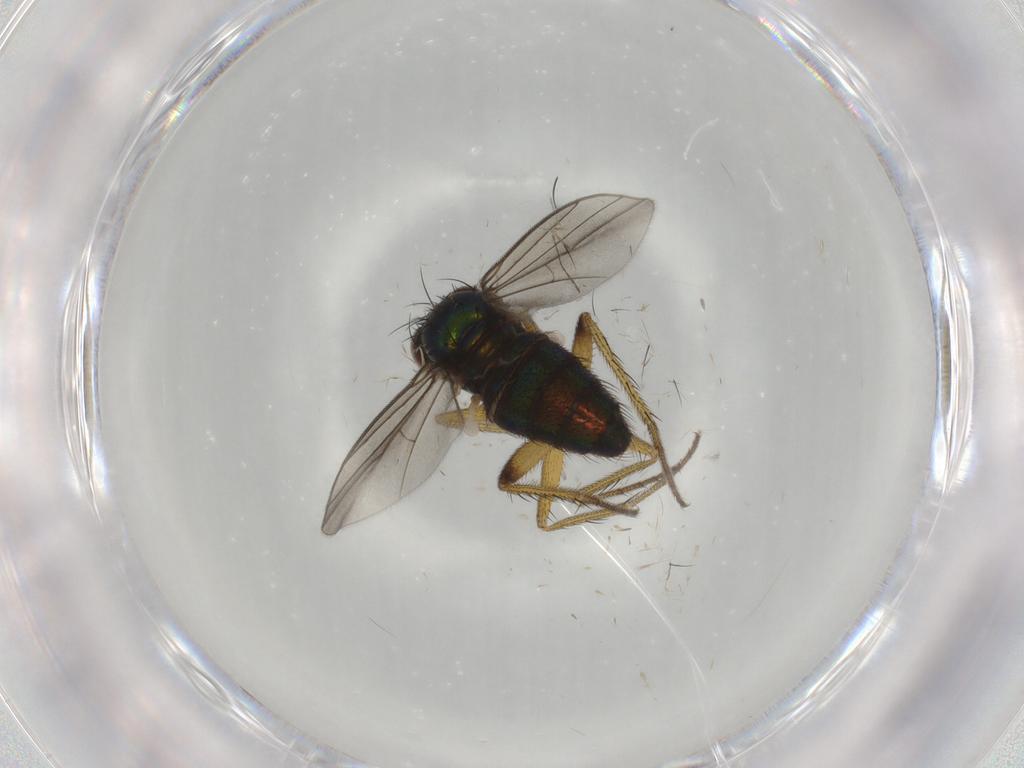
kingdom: Animalia
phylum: Arthropoda
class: Insecta
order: Diptera
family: Dolichopodidae
